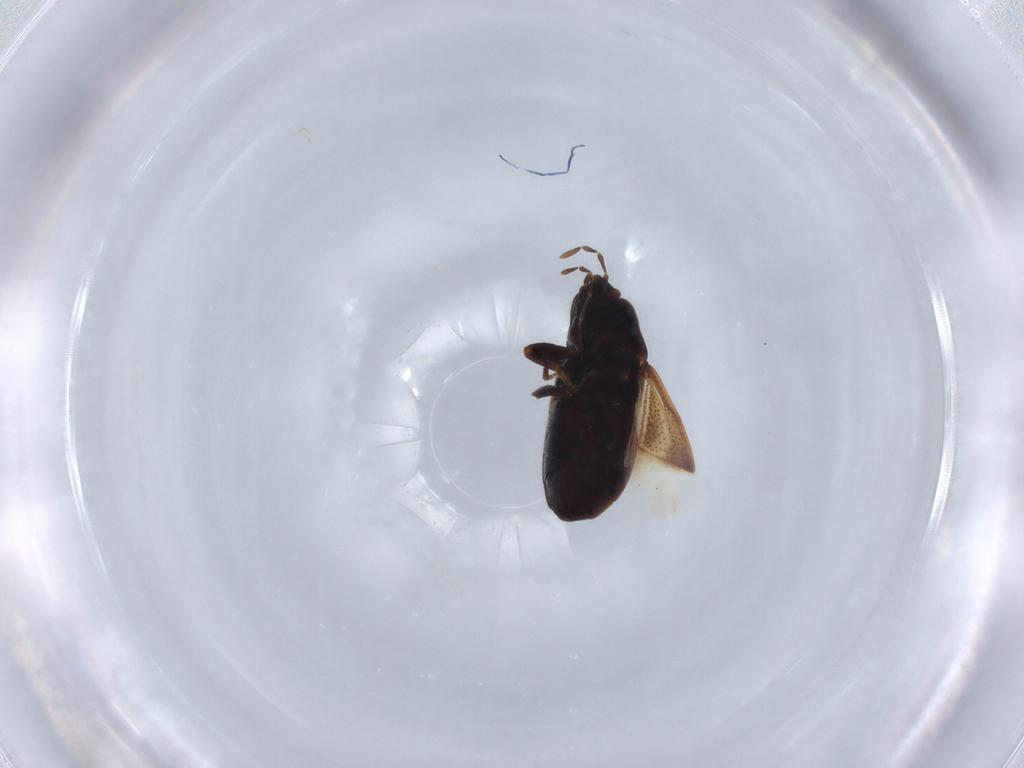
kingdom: Animalia
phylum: Arthropoda
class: Insecta
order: Hemiptera
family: Rhyparochromidae
